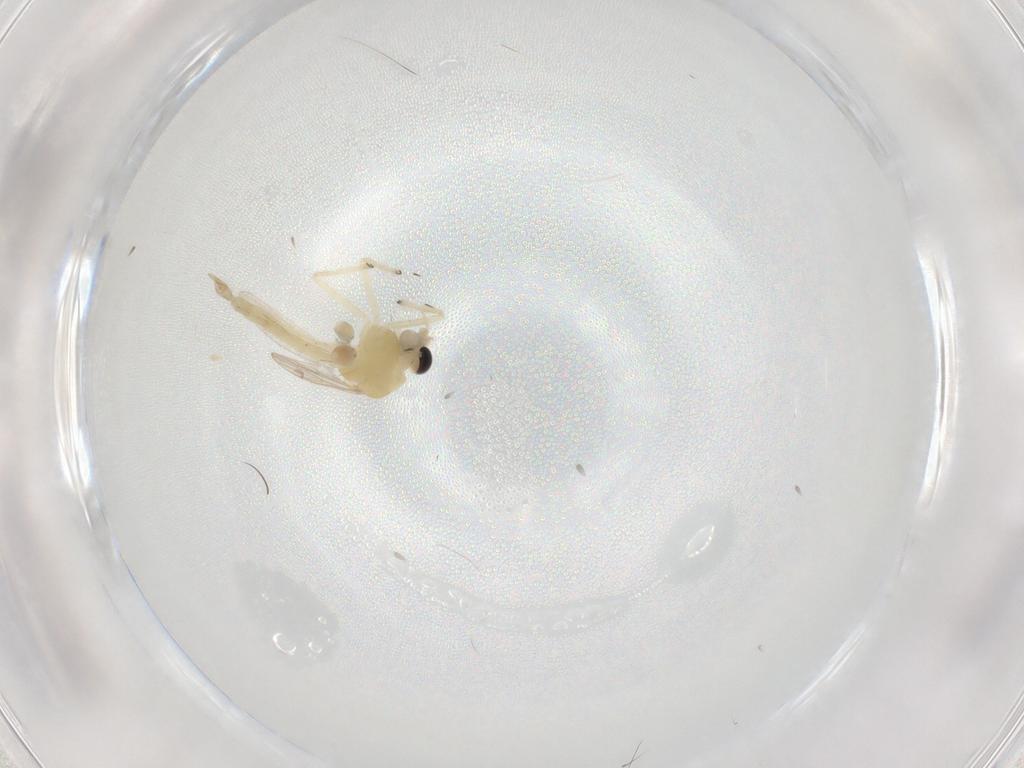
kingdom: Animalia
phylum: Arthropoda
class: Insecta
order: Diptera
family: Chironomidae
